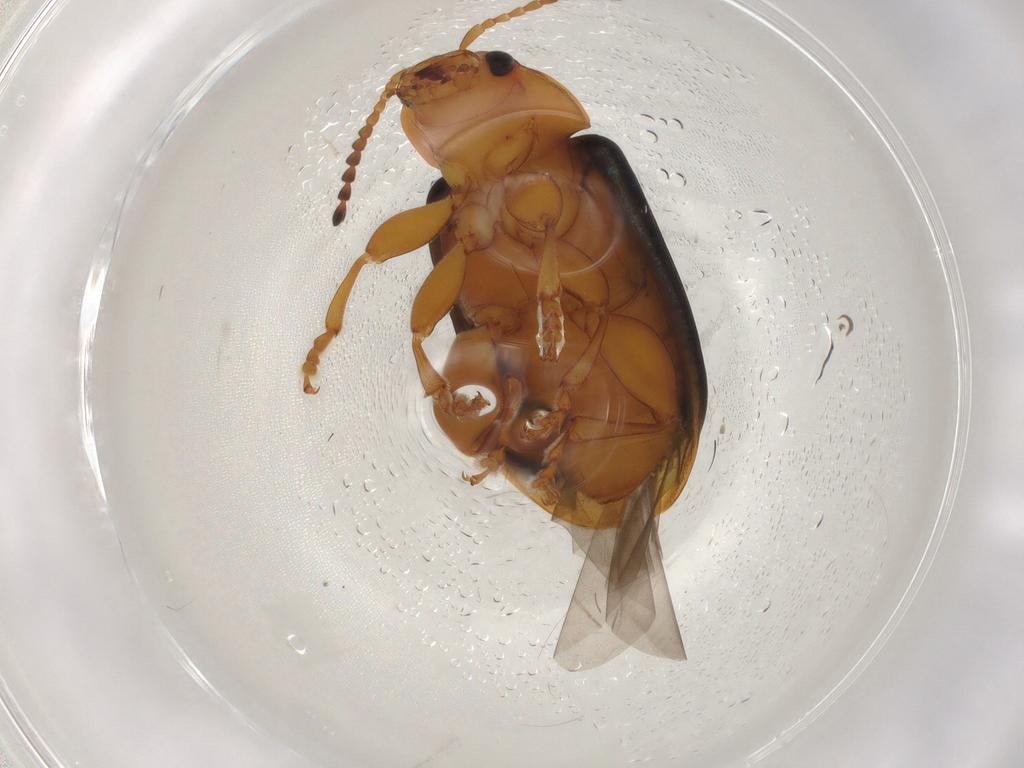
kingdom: Animalia
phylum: Arthropoda
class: Insecta
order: Coleoptera
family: Chrysomelidae
